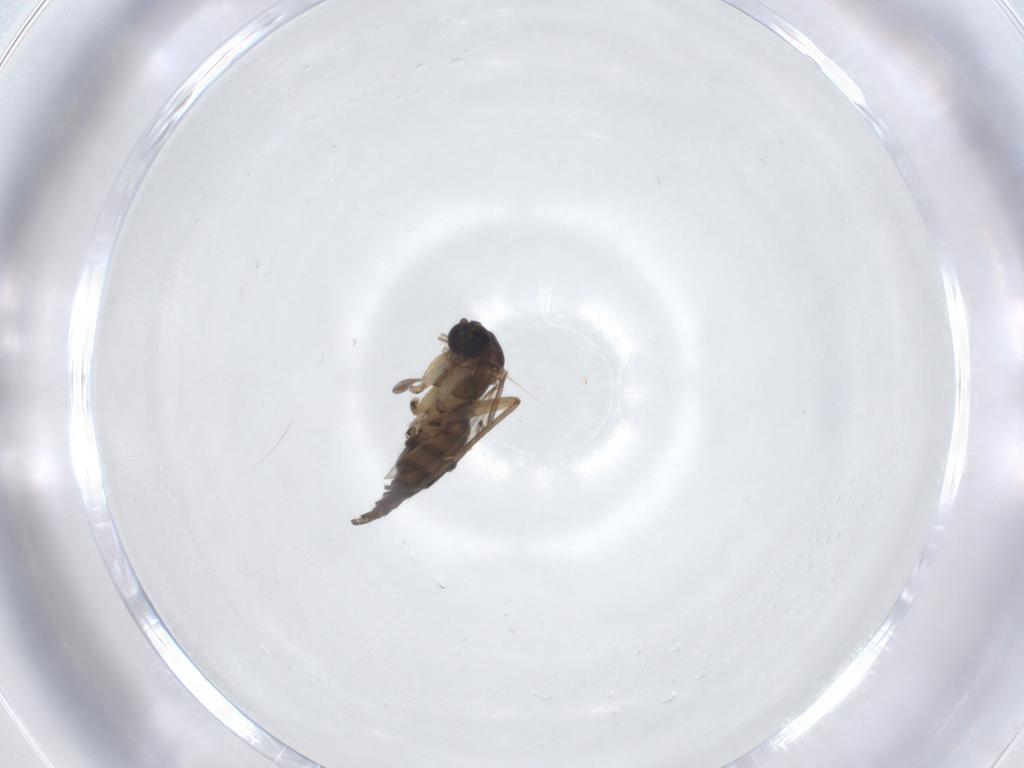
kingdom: Animalia
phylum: Arthropoda
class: Insecta
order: Diptera
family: Sciaridae
